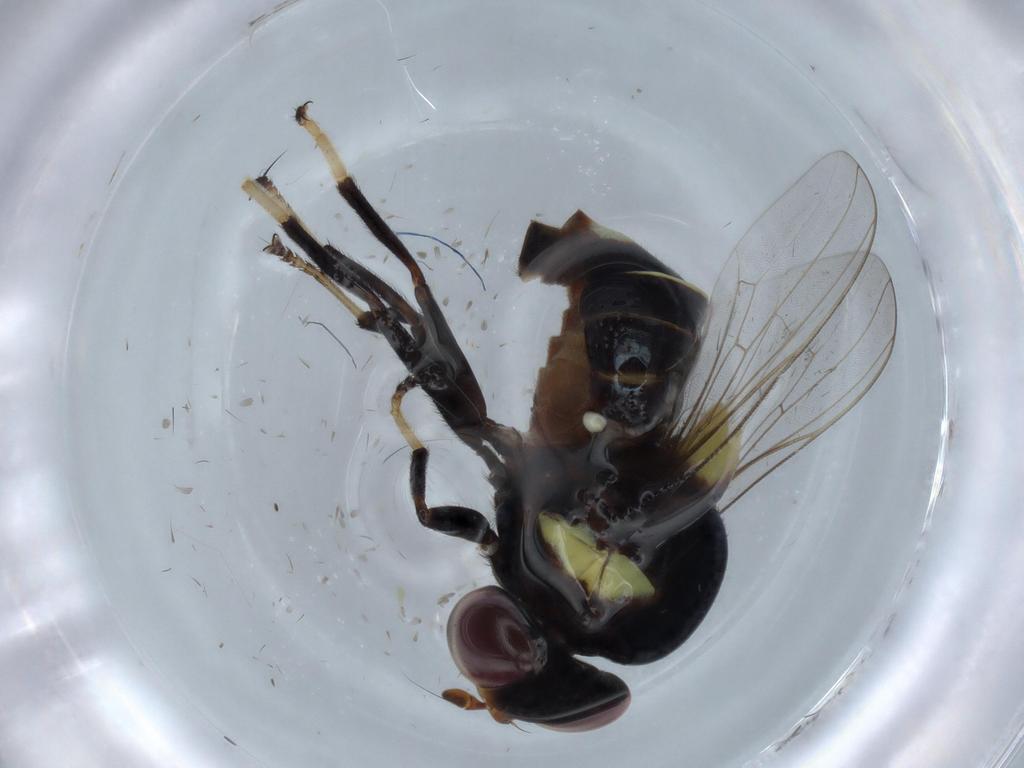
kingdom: Animalia
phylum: Arthropoda
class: Insecta
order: Diptera
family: Chloropidae
